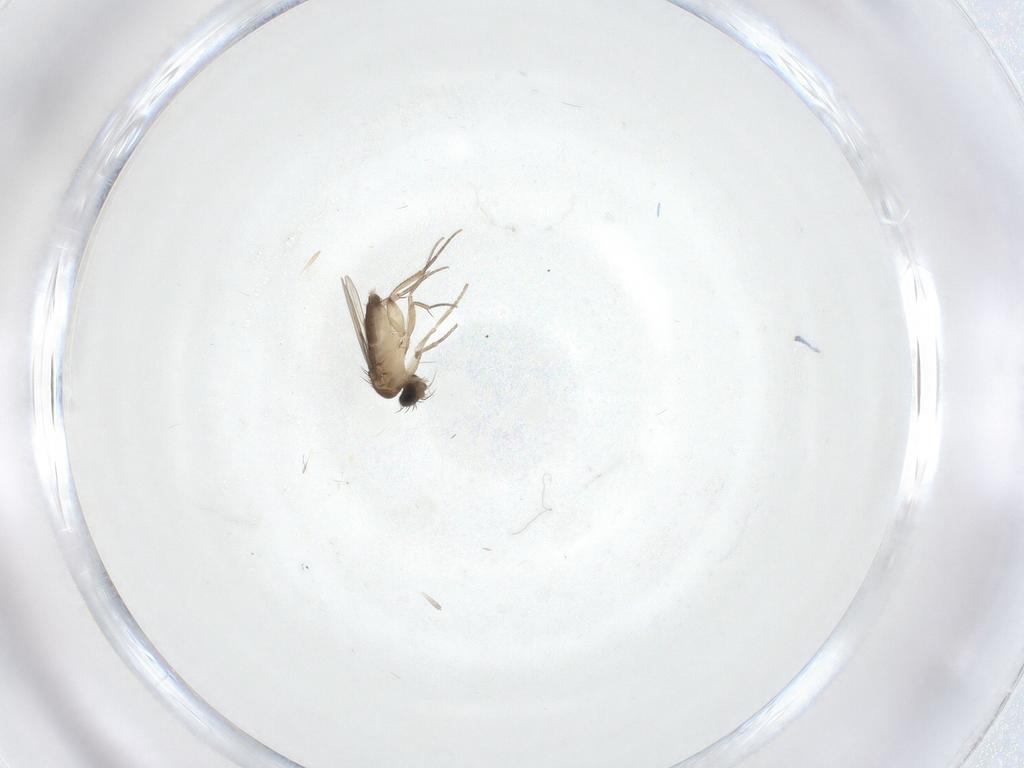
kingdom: Animalia
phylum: Arthropoda
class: Insecta
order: Diptera
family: Phoridae
